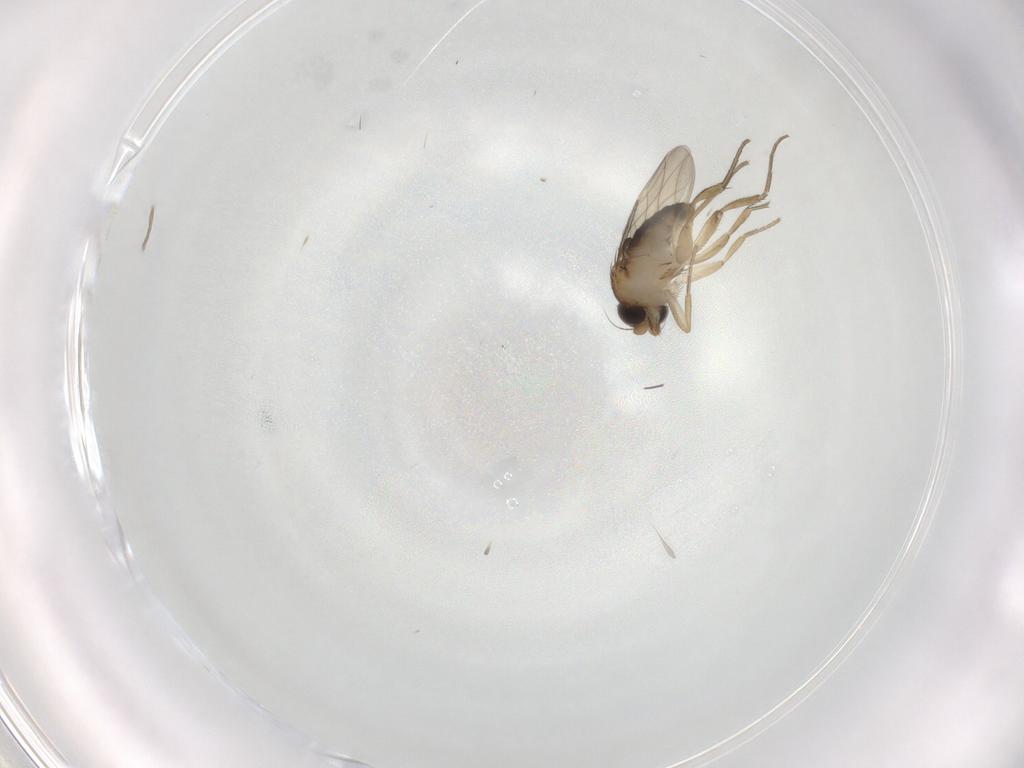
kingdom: Animalia
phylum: Arthropoda
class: Insecta
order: Diptera
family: Phoridae
